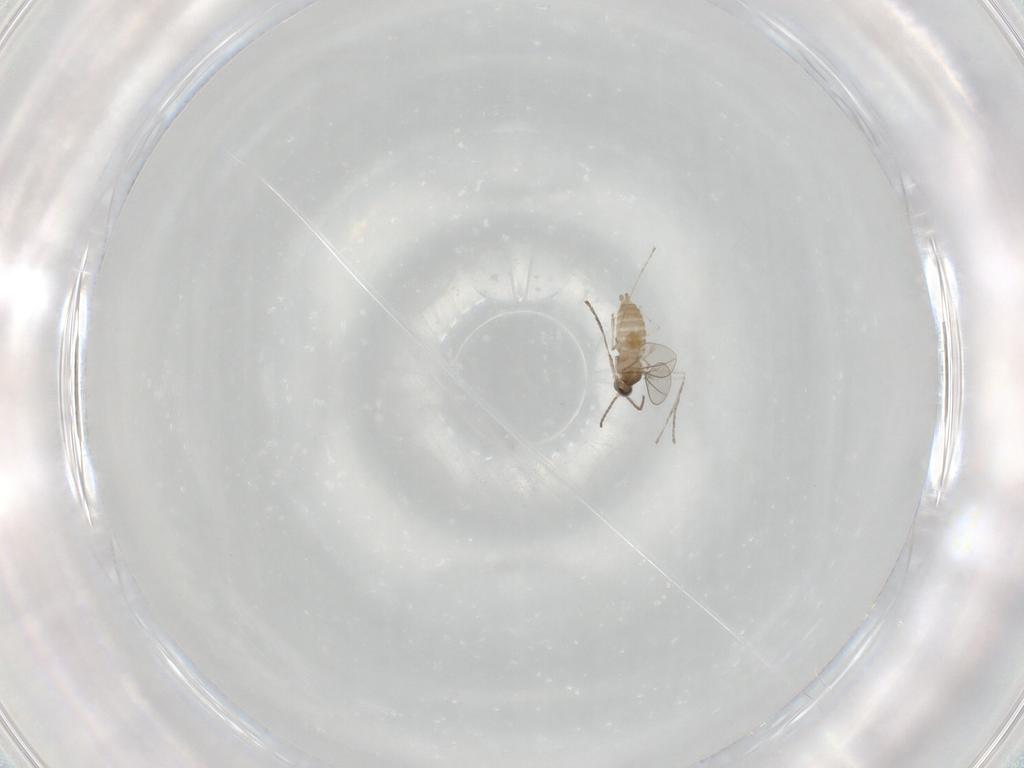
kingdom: Animalia
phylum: Arthropoda
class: Insecta
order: Diptera
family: Cecidomyiidae
